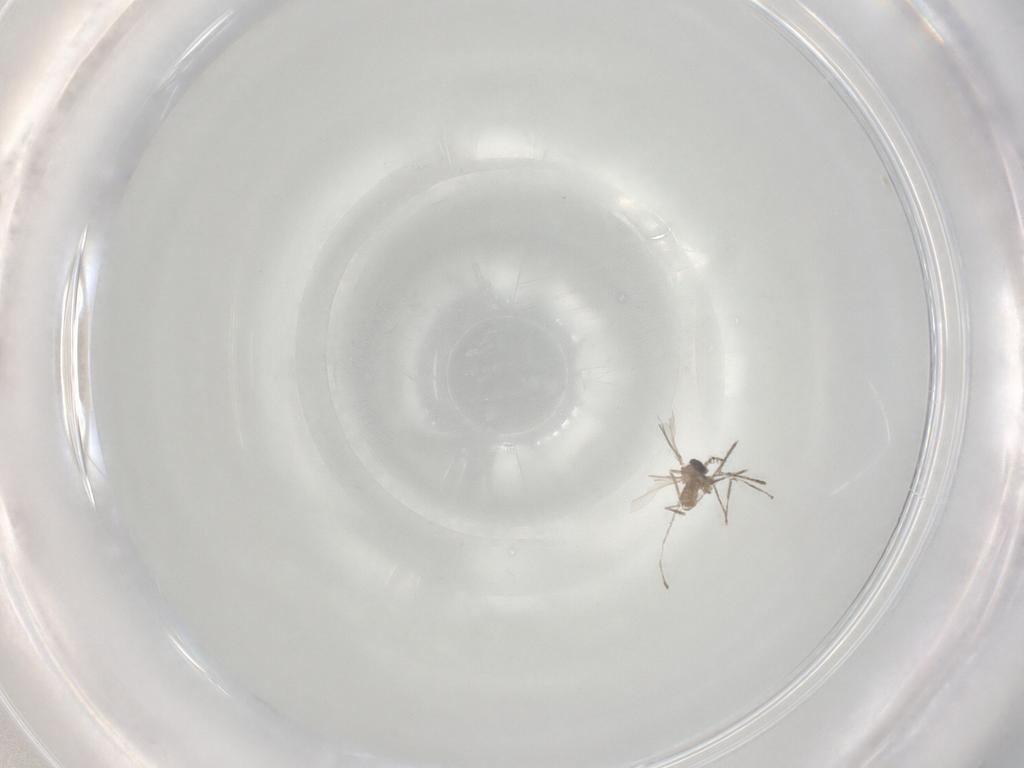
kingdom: Animalia
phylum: Arthropoda
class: Insecta
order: Diptera
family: Cecidomyiidae
